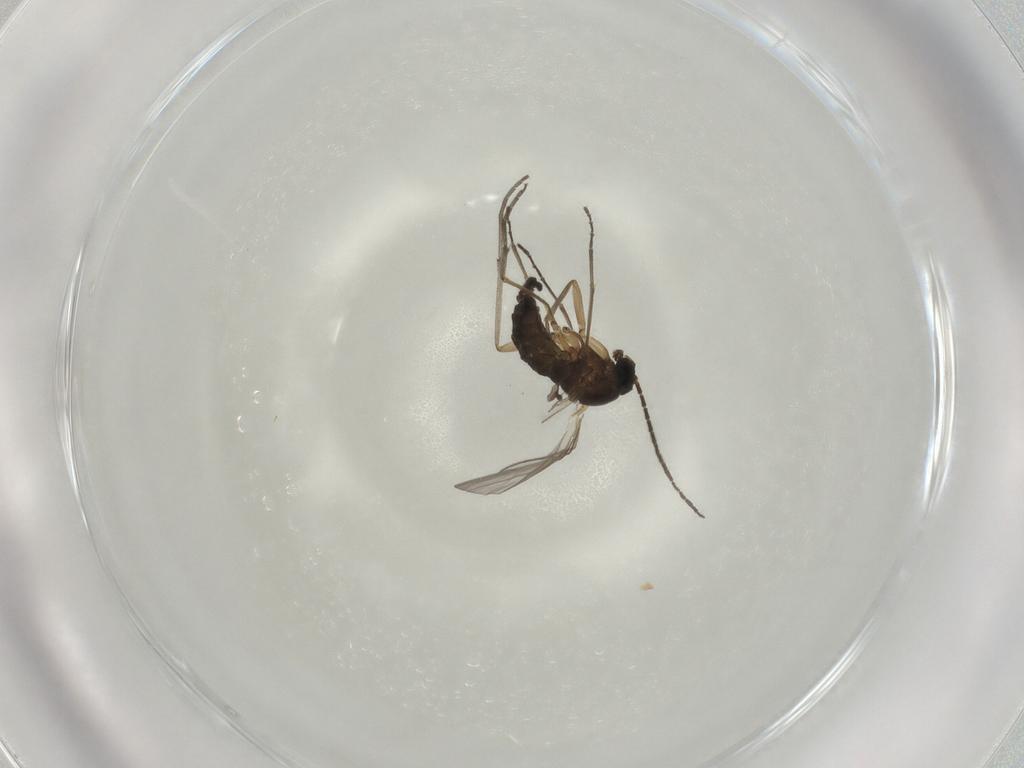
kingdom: Animalia
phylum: Arthropoda
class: Insecta
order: Diptera
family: Sciaridae
